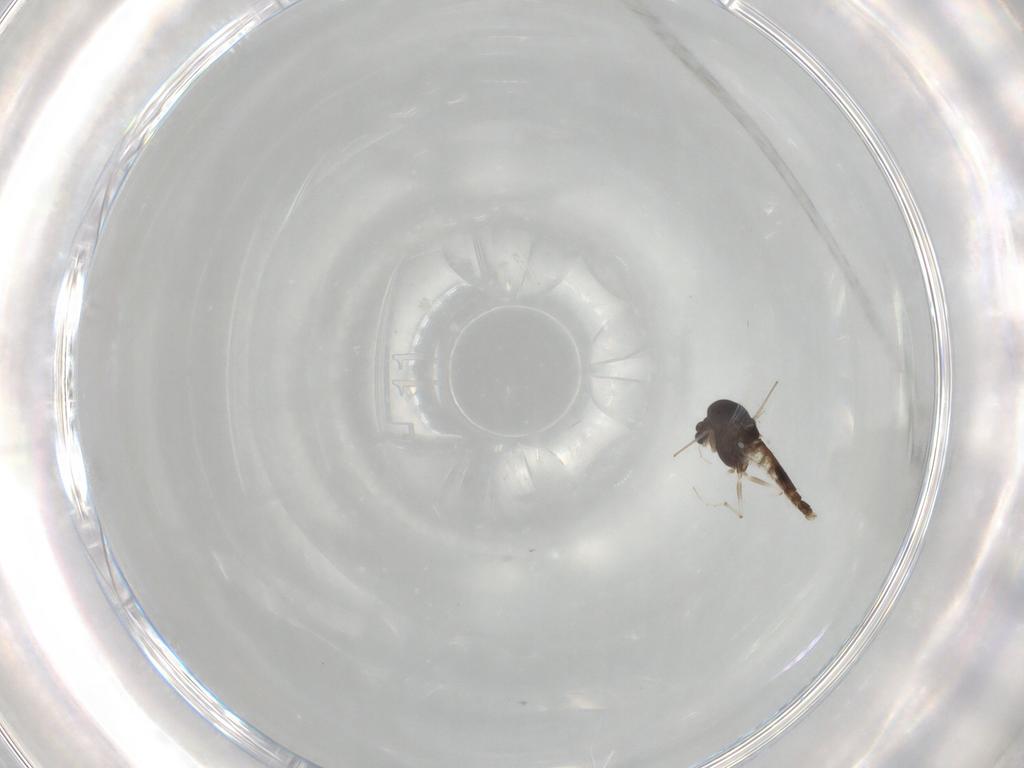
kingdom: Animalia
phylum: Arthropoda
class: Insecta
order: Diptera
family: Chironomidae
